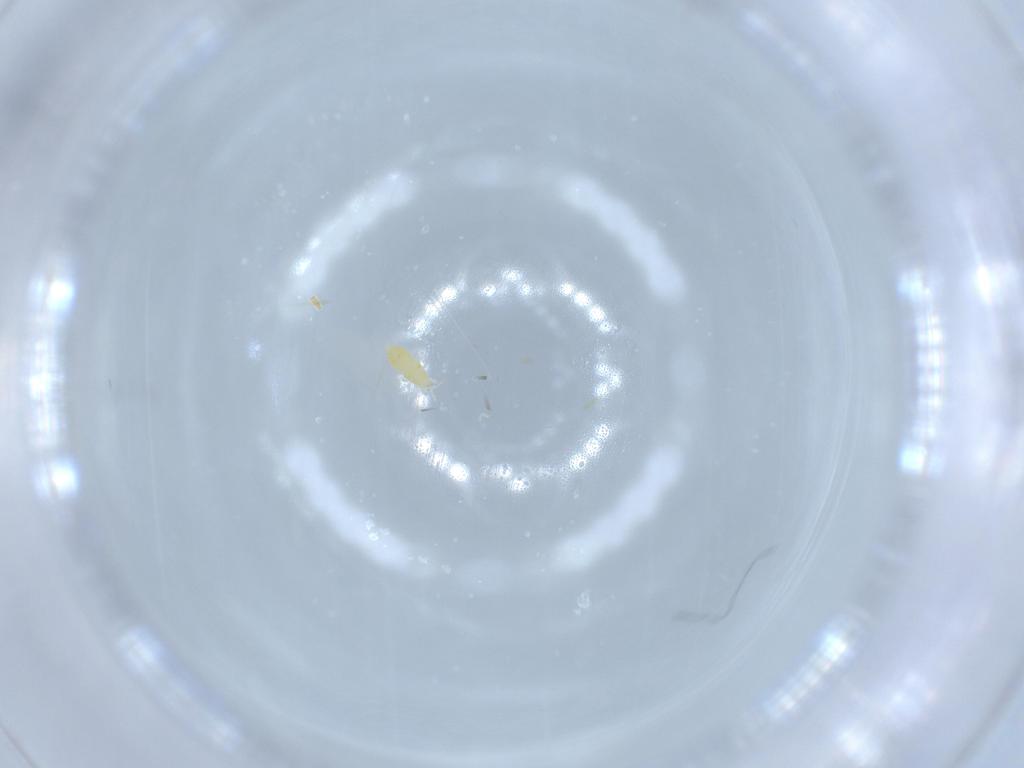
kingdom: Animalia
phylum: Arthropoda
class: Insecta
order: Thysanoptera
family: Thripidae
